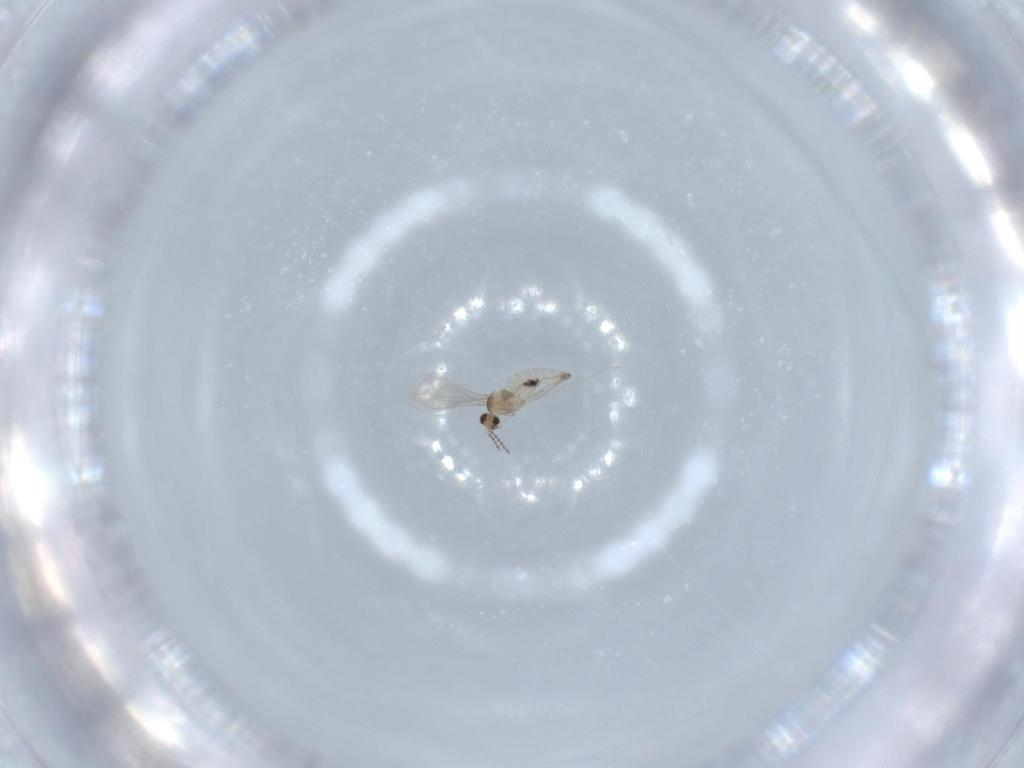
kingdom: Animalia
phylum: Arthropoda
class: Insecta
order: Diptera
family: Cecidomyiidae
